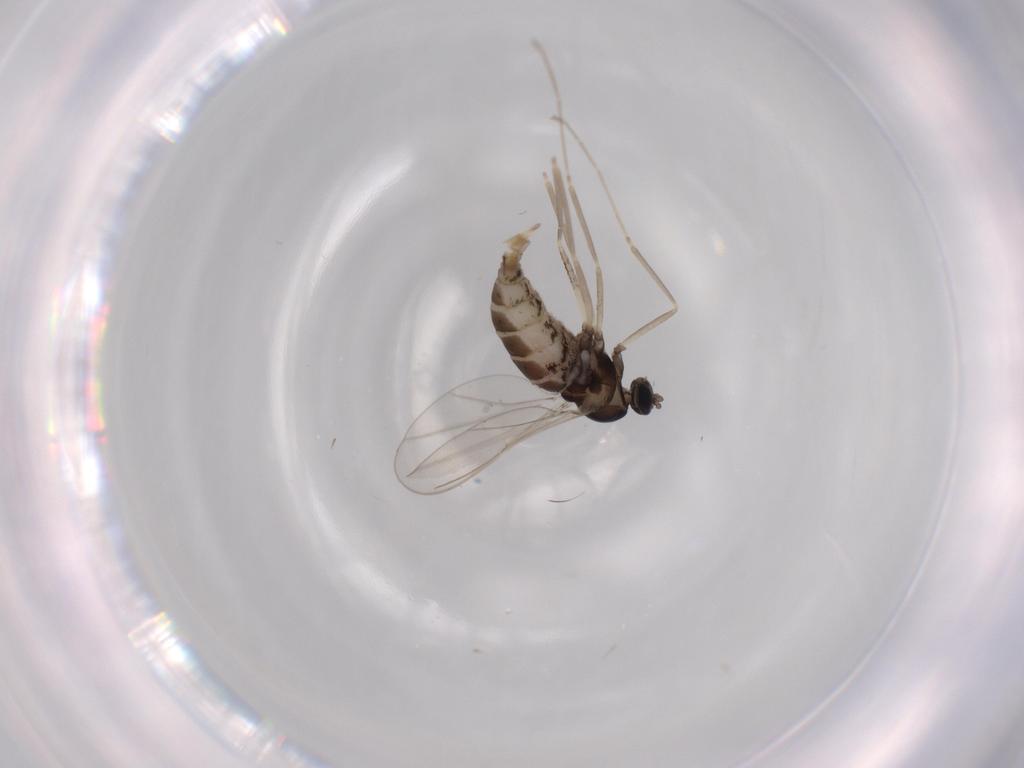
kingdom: Animalia
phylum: Arthropoda
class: Insecta
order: Diptera
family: Cecidomyiidae
